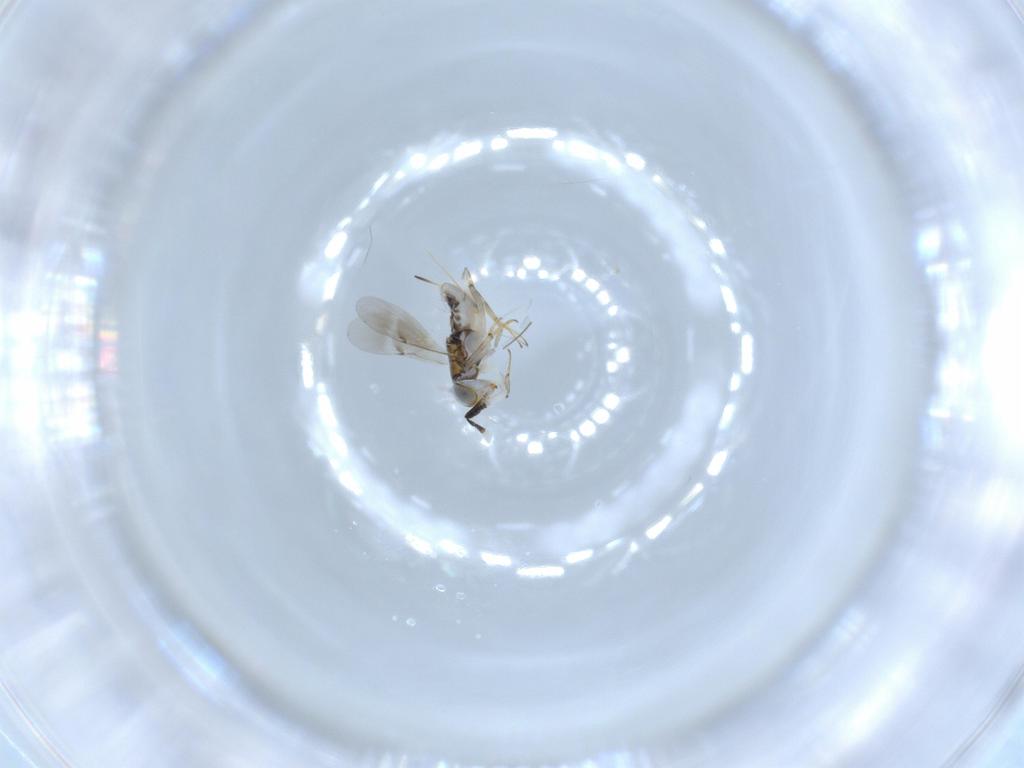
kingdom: Animalia
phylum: Arthropoda
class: Insecta
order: Hymenoptera
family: Encyrtidae
